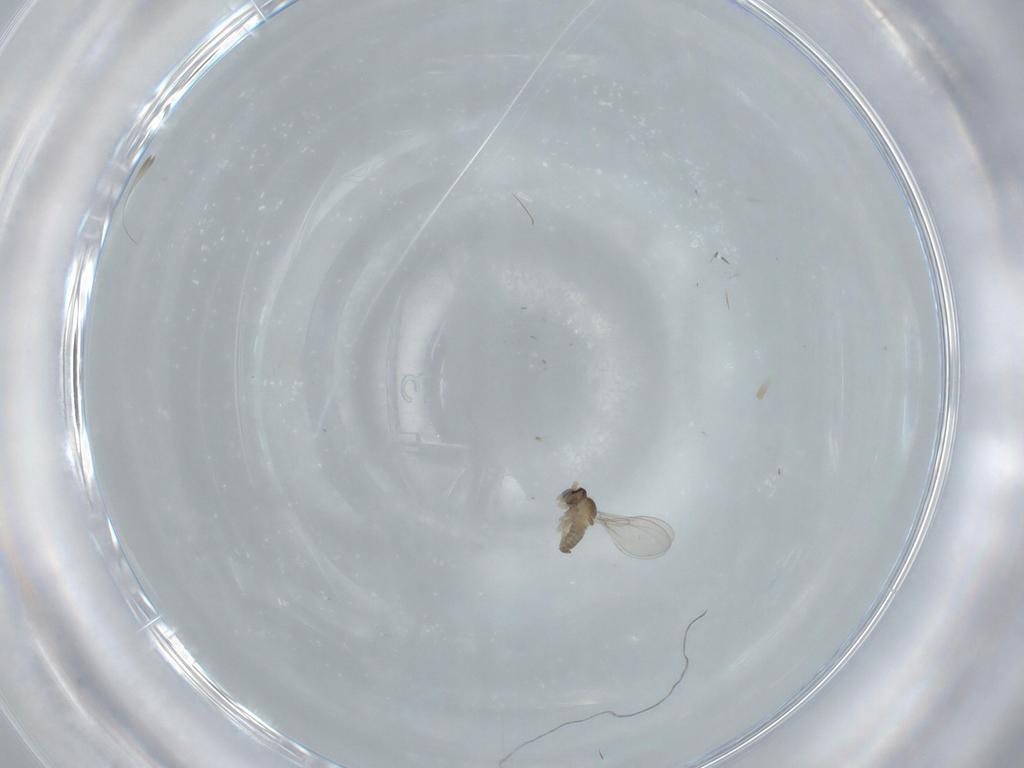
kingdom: Animalia
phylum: Arthropoda
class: Insecta
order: Diptera
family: Cecidomyiidae
